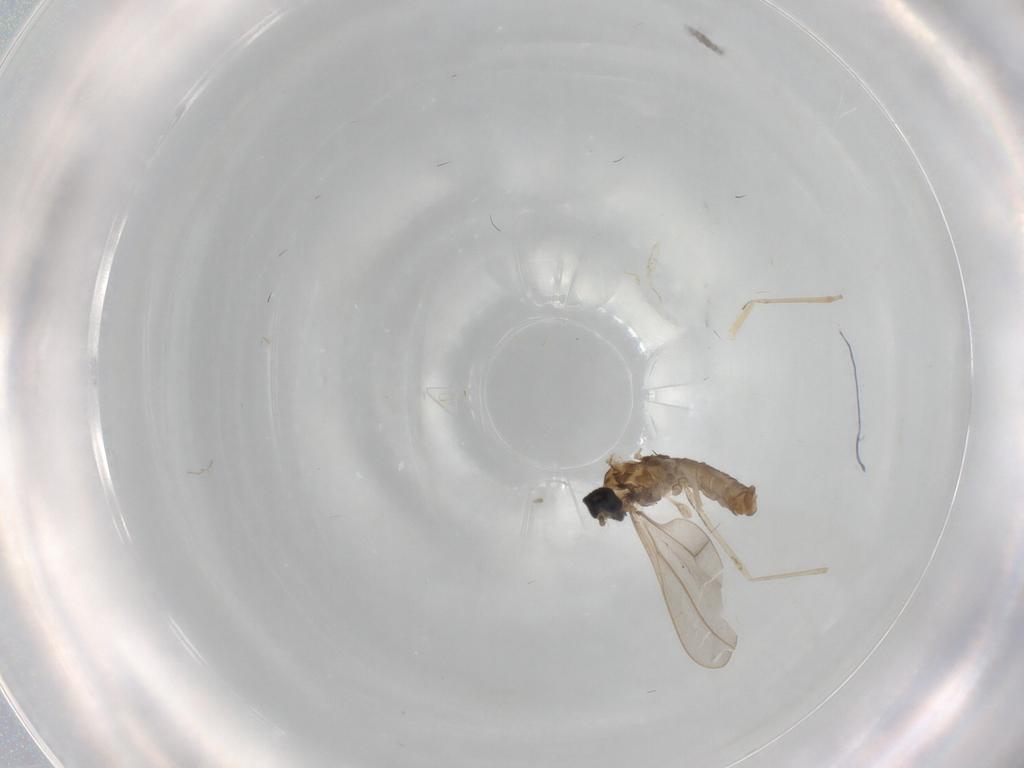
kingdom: Animalia
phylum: Arthropoda
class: Insecta
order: Diptera
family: Cecidomyiidae
